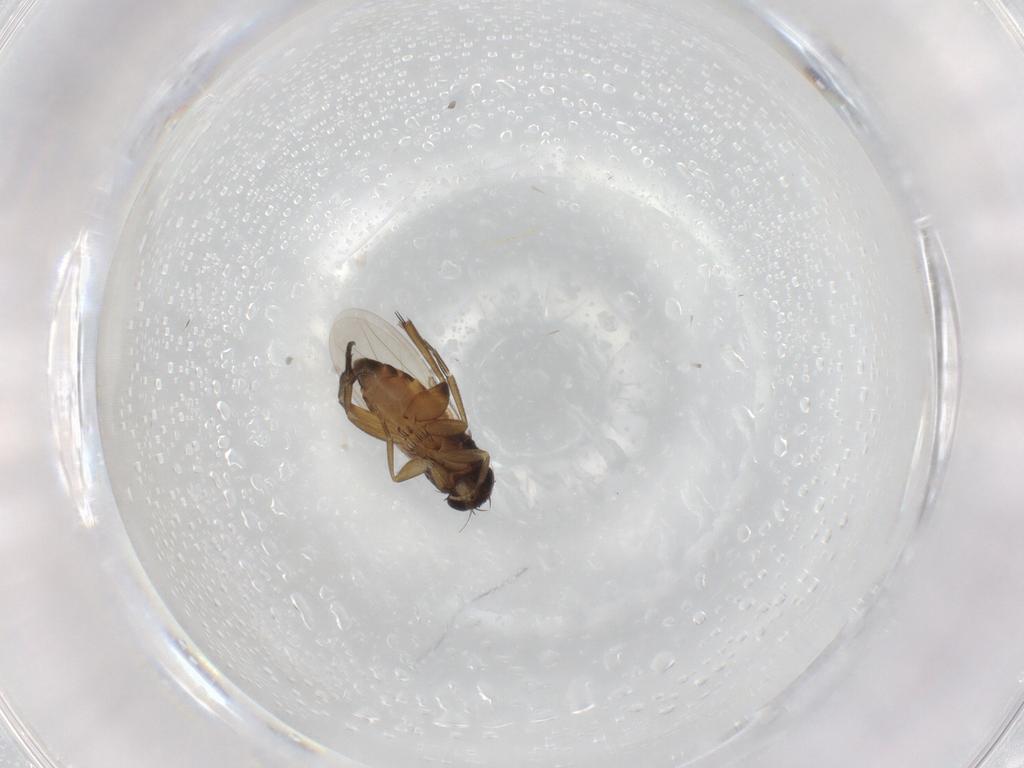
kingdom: Animalia
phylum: Arthropoda
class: Insecta
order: Diptera
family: Phoridae
